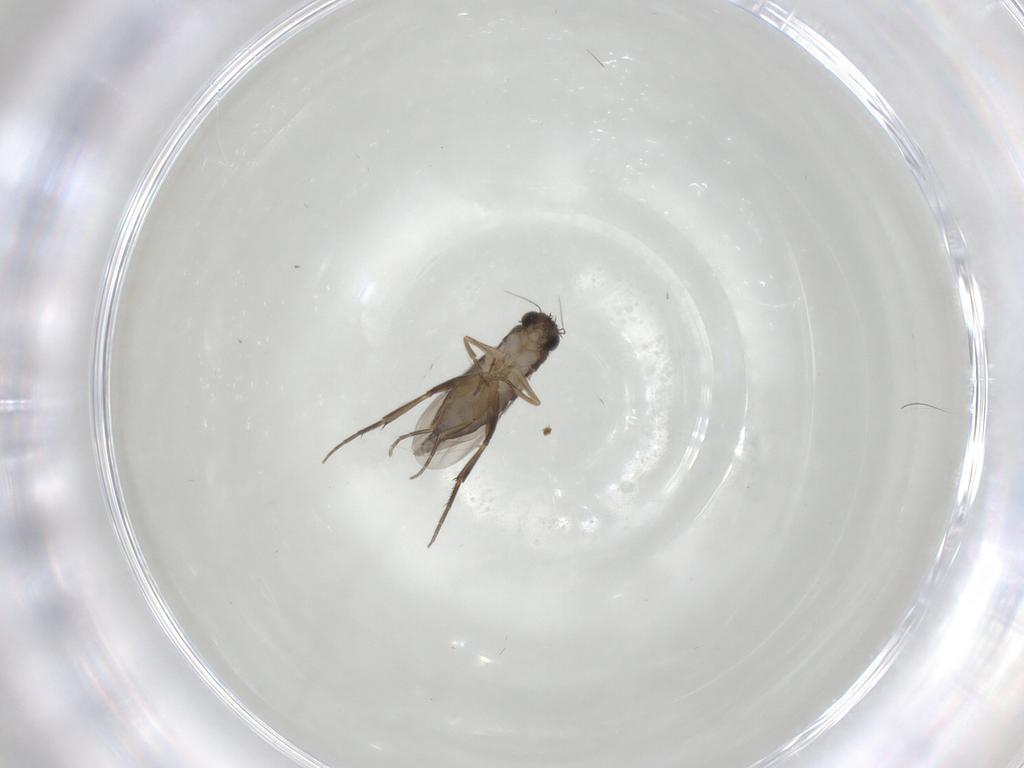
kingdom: Animalia
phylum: Arthropoda
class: Insecta
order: Diptera
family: Phoridae
